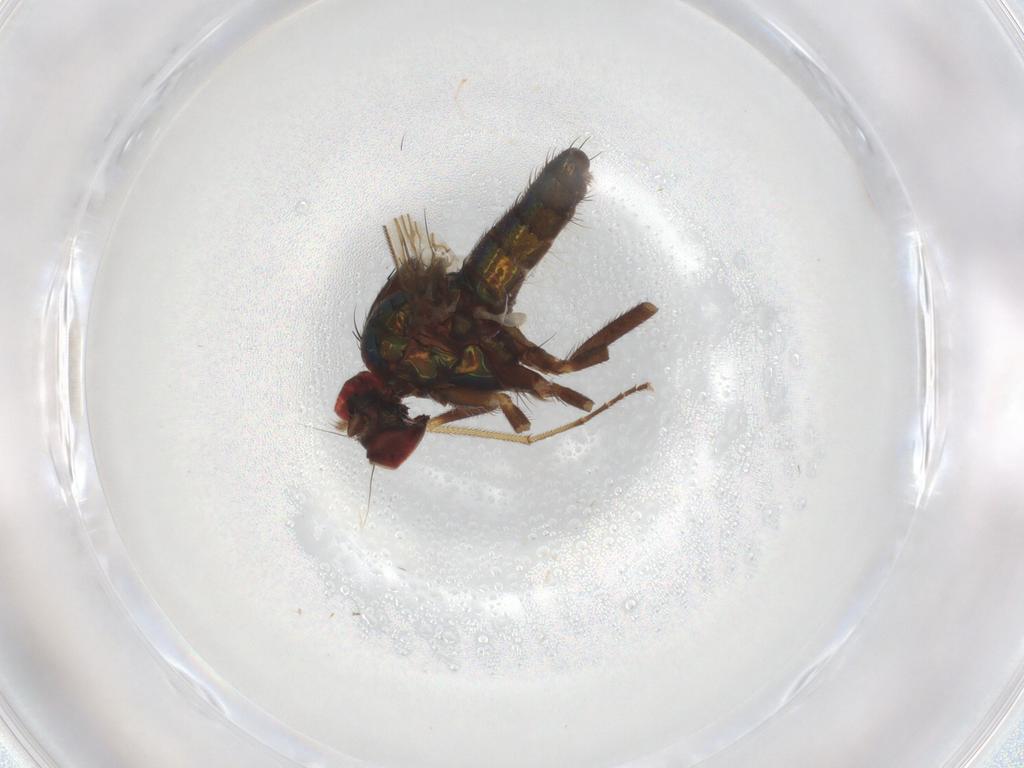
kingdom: Animalia
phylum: Arthropoda
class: Insecta
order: Diptera
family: Dolichopodidae
